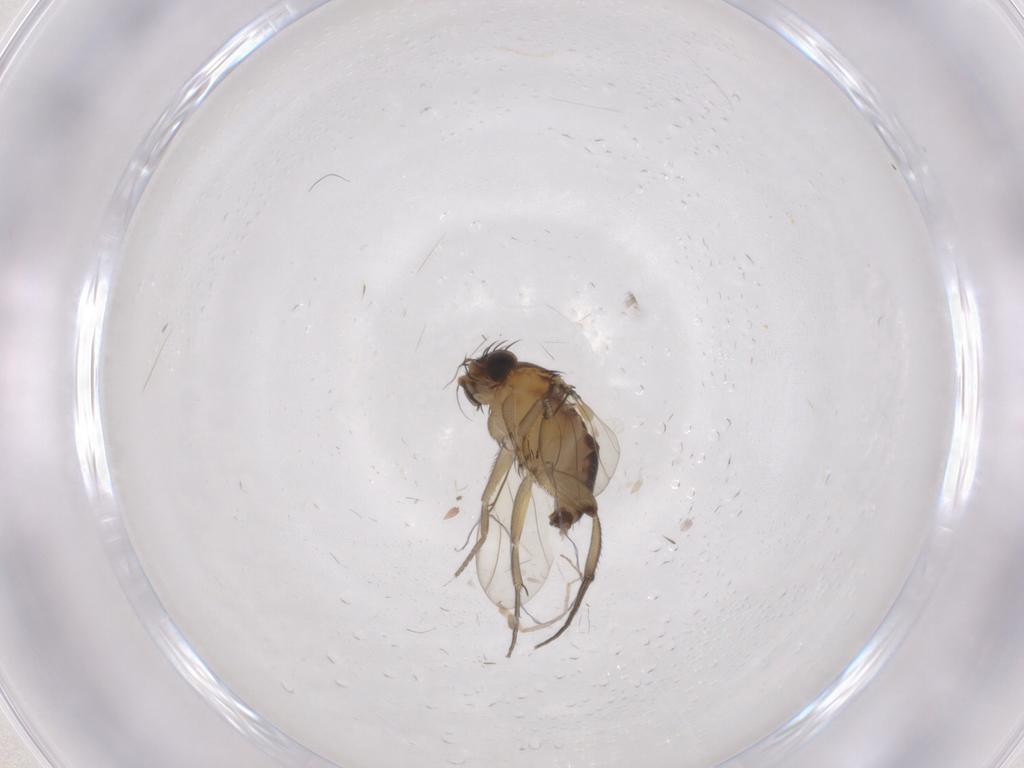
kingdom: Animalia
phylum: Arthropoda
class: Insecta
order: Diptera
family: Phoridae
